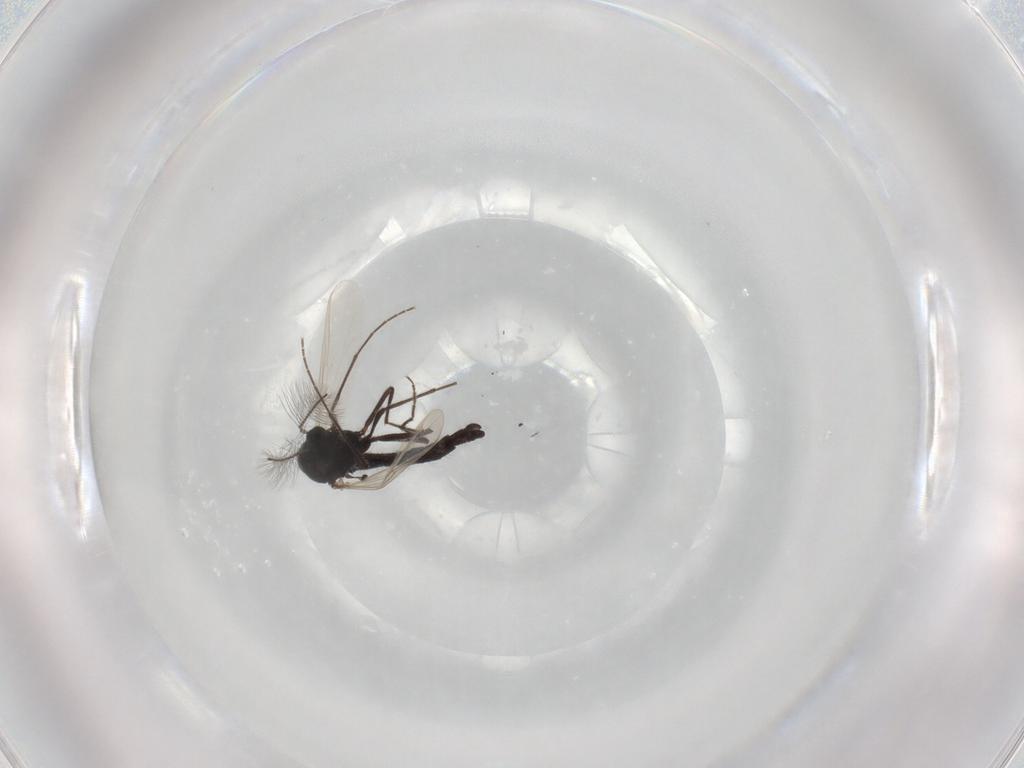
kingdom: Animalia
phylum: Arthropoda
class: Insecta
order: Diptera
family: Chironomidae
